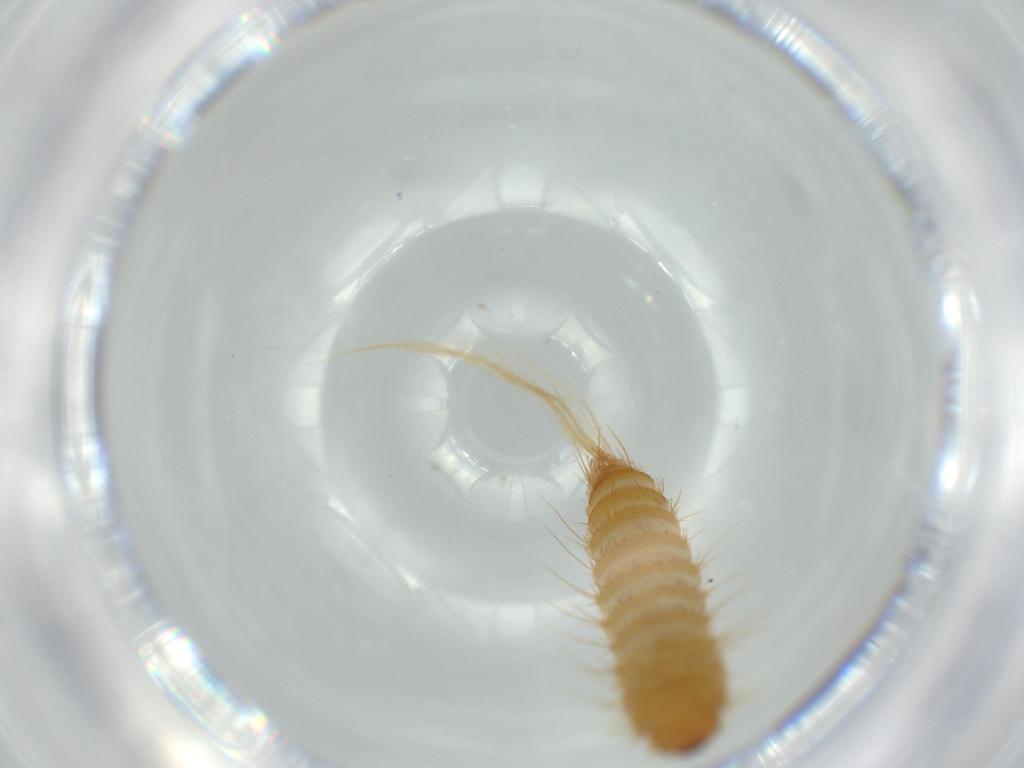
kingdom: Animalia
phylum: Arthropoda
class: Insecta
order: Coleoptera
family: Dermestidae
